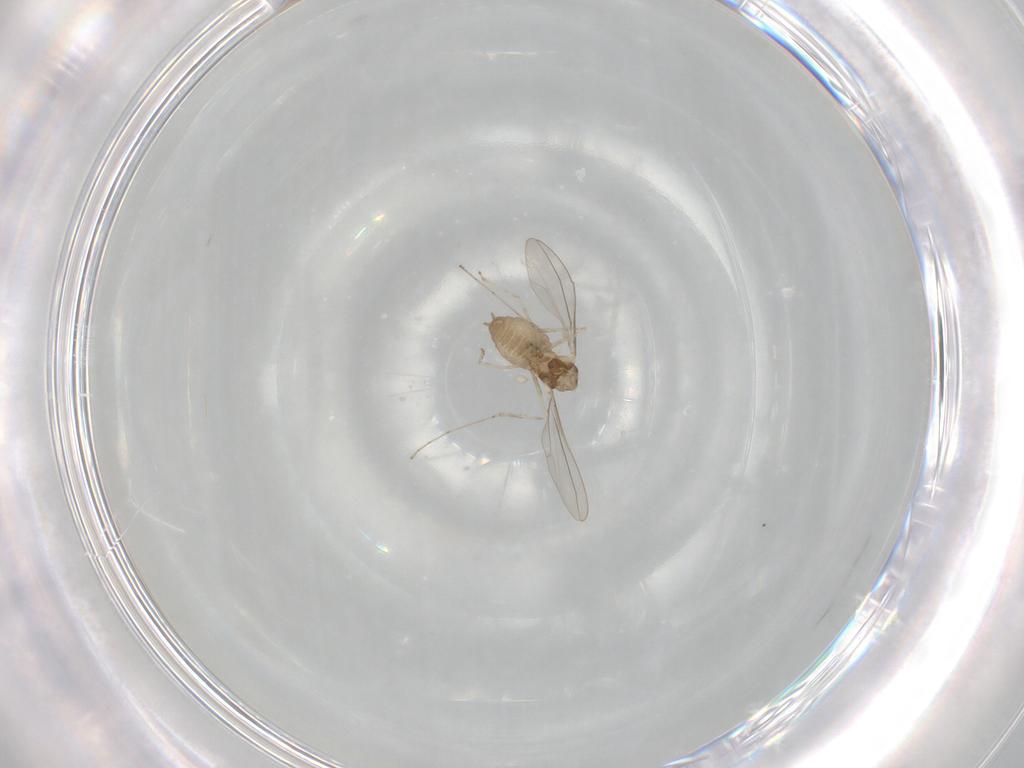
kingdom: Animalia
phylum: Arthropoda
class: Insecta
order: Diptera
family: Cecidomyiidae
